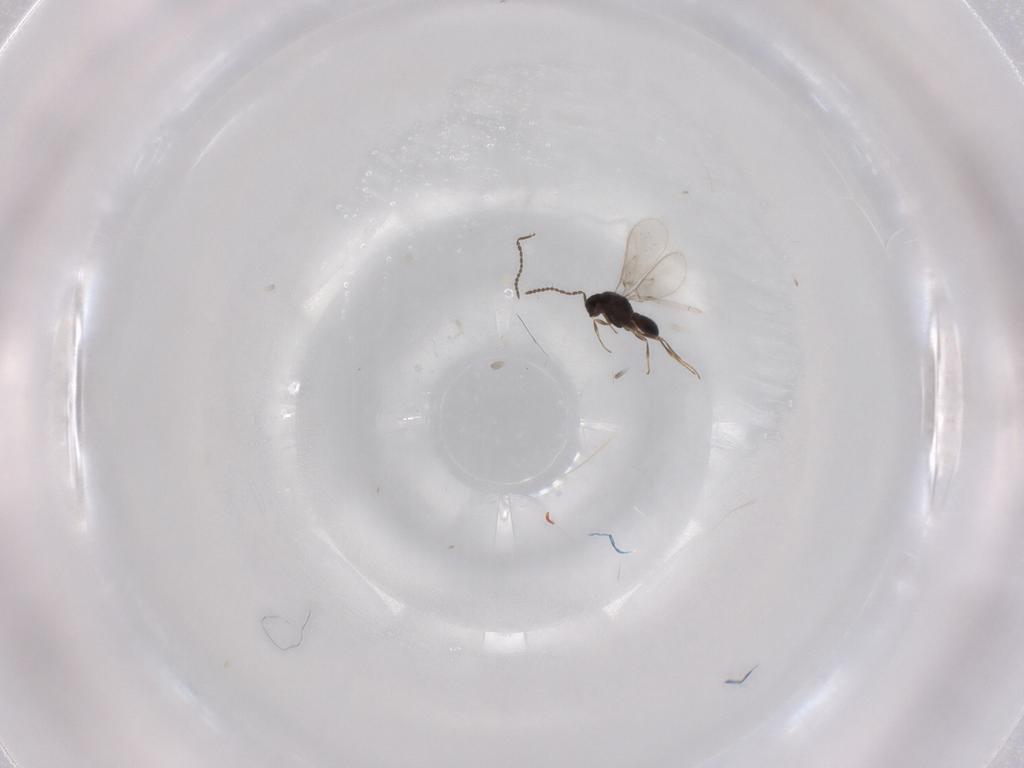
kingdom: Animalia
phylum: Arthropoda
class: Insecta
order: Hymenoptera
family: Scelionidae
